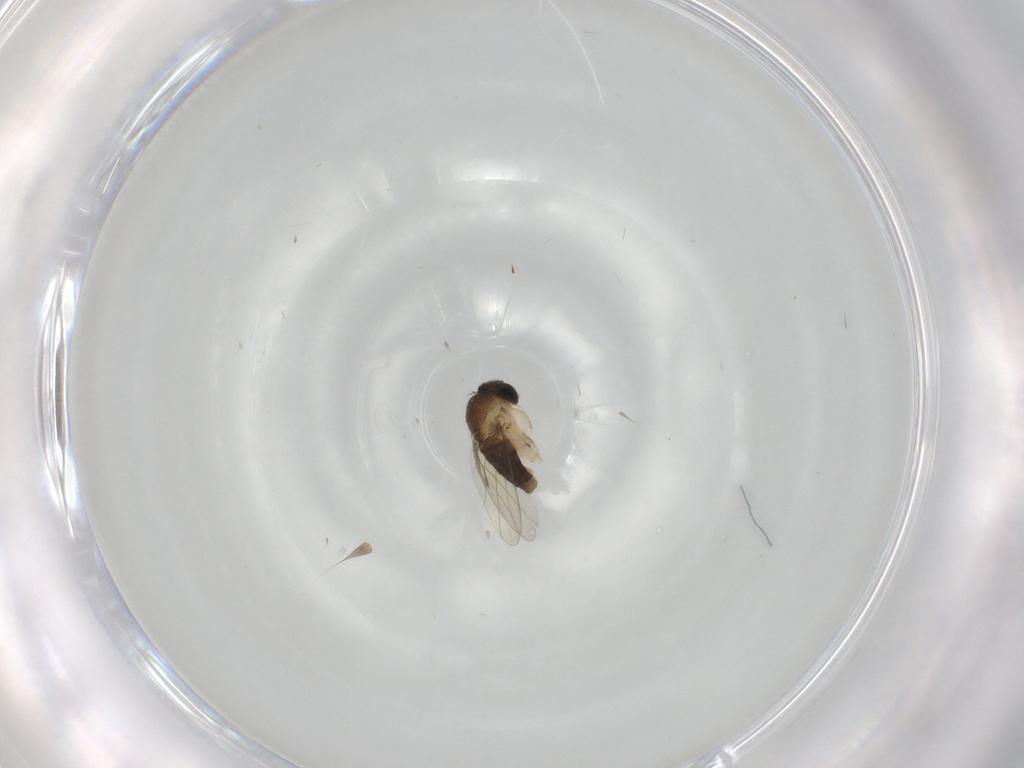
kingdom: Animalia
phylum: Arthropoda
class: Insecta
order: Diptera
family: Phoridae
